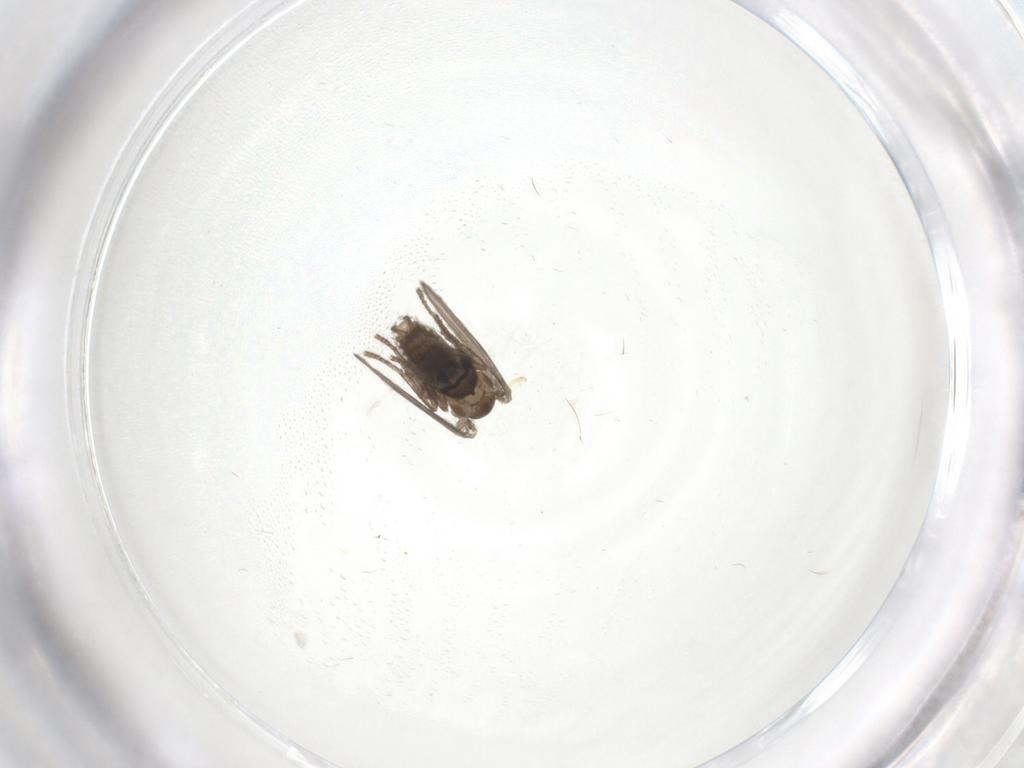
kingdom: Animalia
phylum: Arthropoda
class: Insecta
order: Diptera
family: Psychodidae
